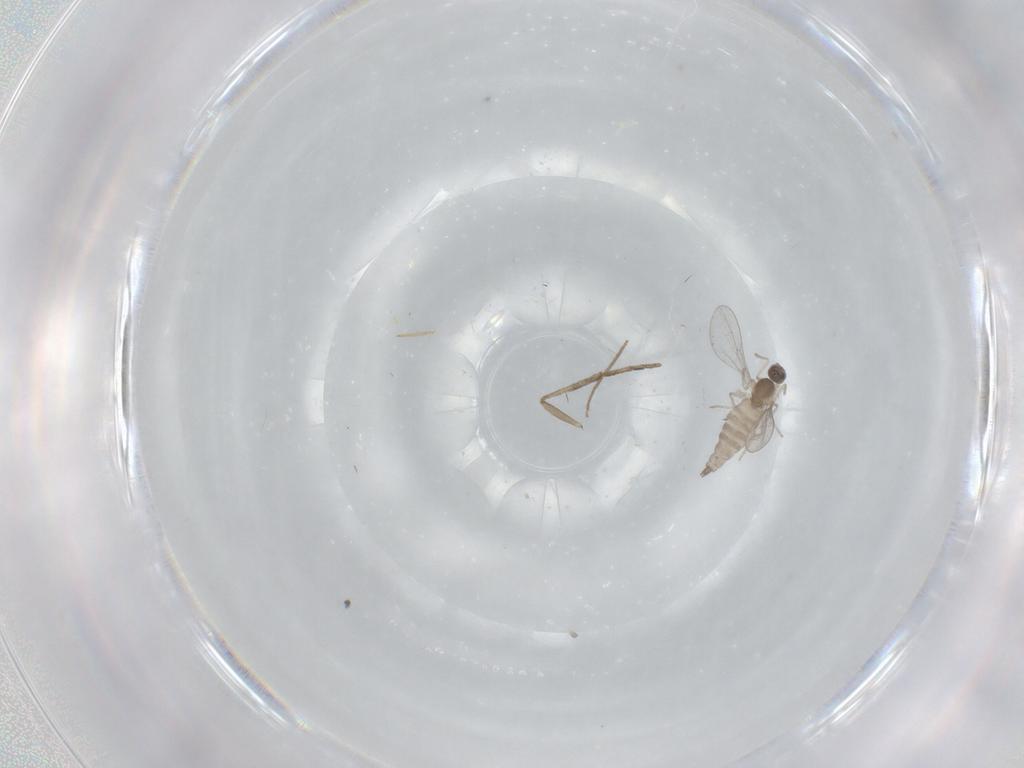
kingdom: Animalia
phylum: Arthropoda
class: Insecta
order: Diptera
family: Cecidomyiidae
